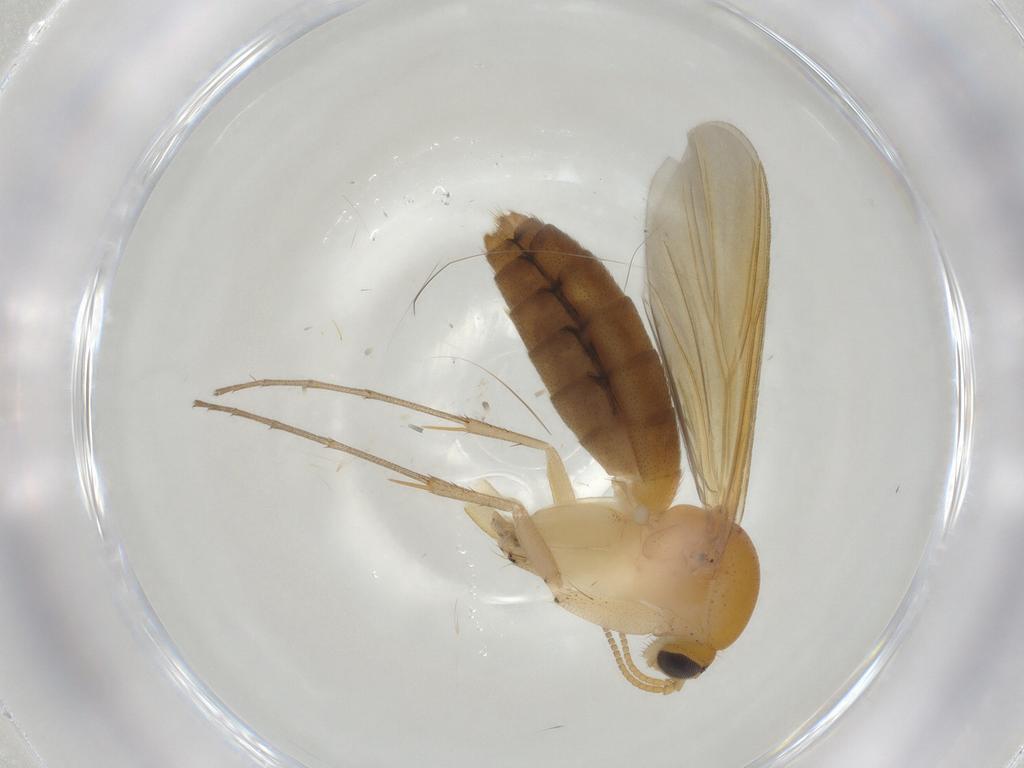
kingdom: Animalia
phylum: Arthropoda
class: Insecta
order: Diptera
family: Mycetophilidae
